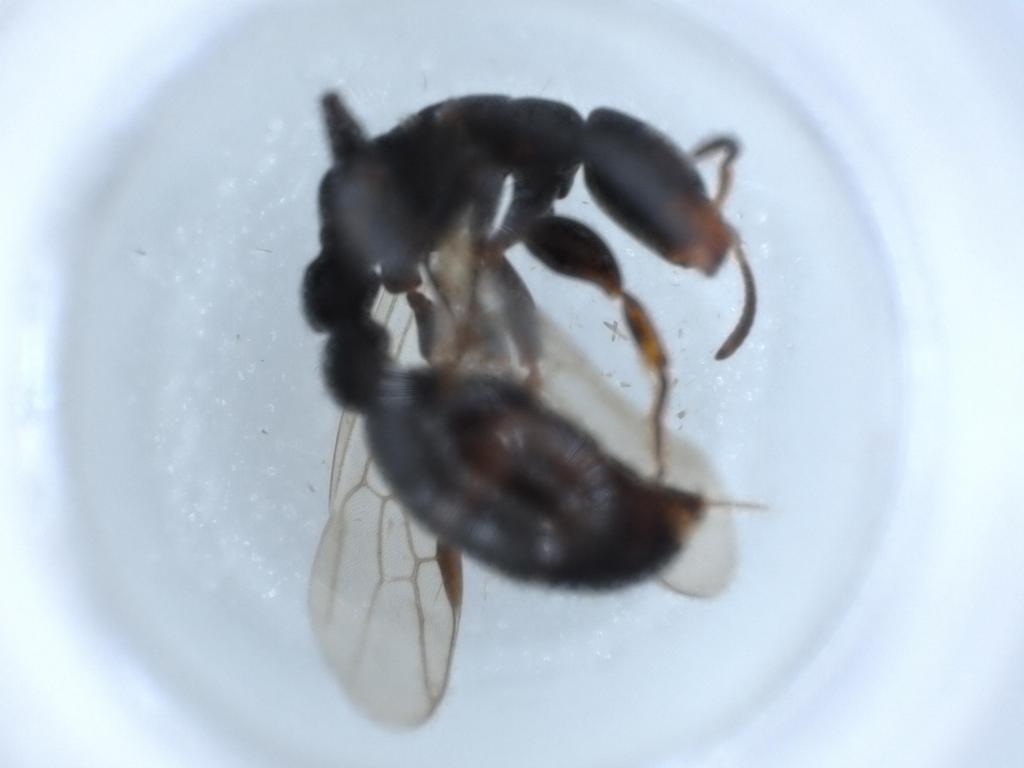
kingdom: Animalia
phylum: Arthropoda
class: Insecta
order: Hymenoptera
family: Formicidae
